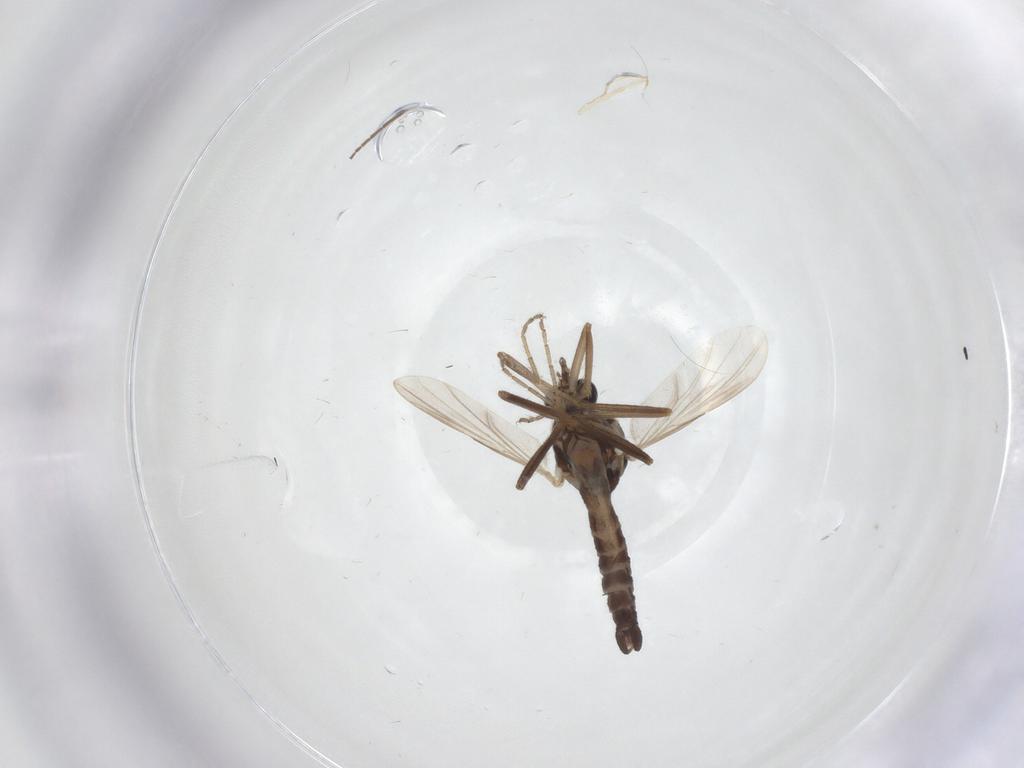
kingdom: Animalia
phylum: Arthropoda
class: Insecta
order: Diptera
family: Ceratopogonidae
